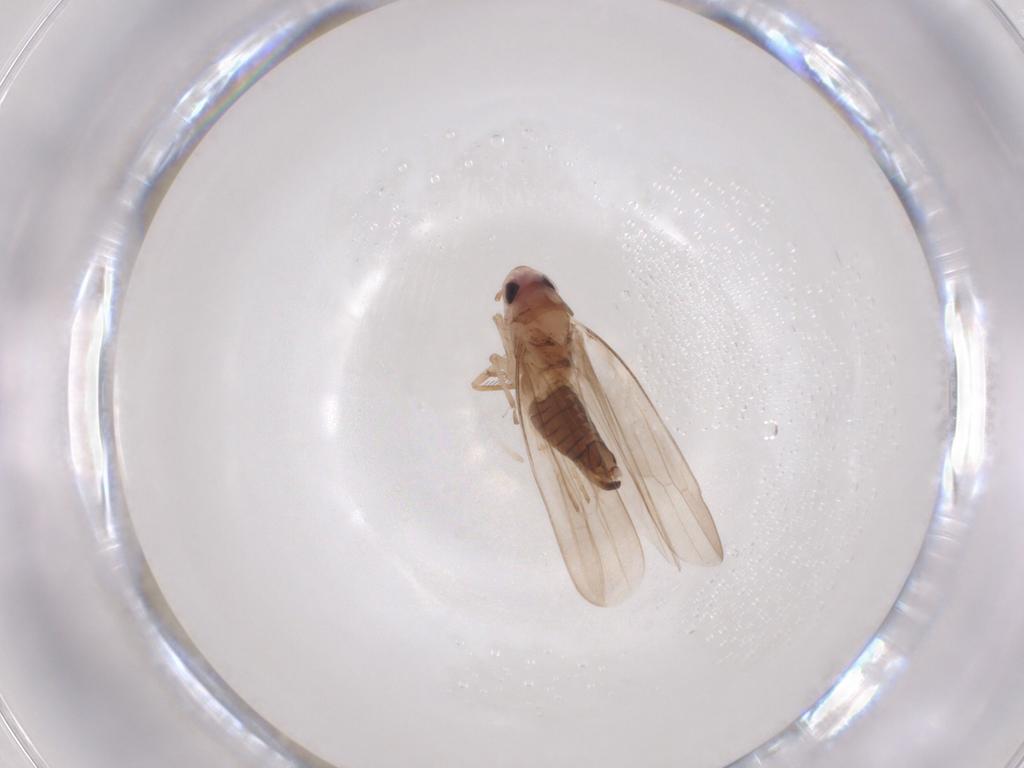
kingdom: Animalia
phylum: Arthropoda
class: Insecta
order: Hemiptera
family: Cicadellidae
